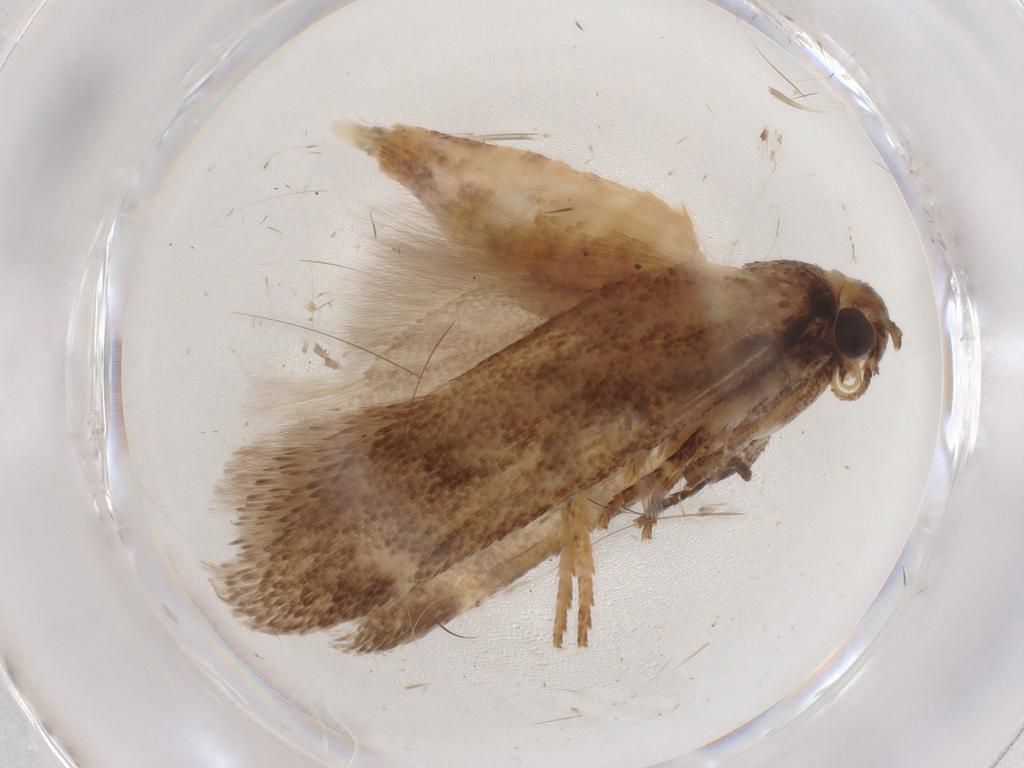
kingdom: Animalia
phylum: Arthropoda
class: Insecta
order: Lepidoptera
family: Gelechiidae
